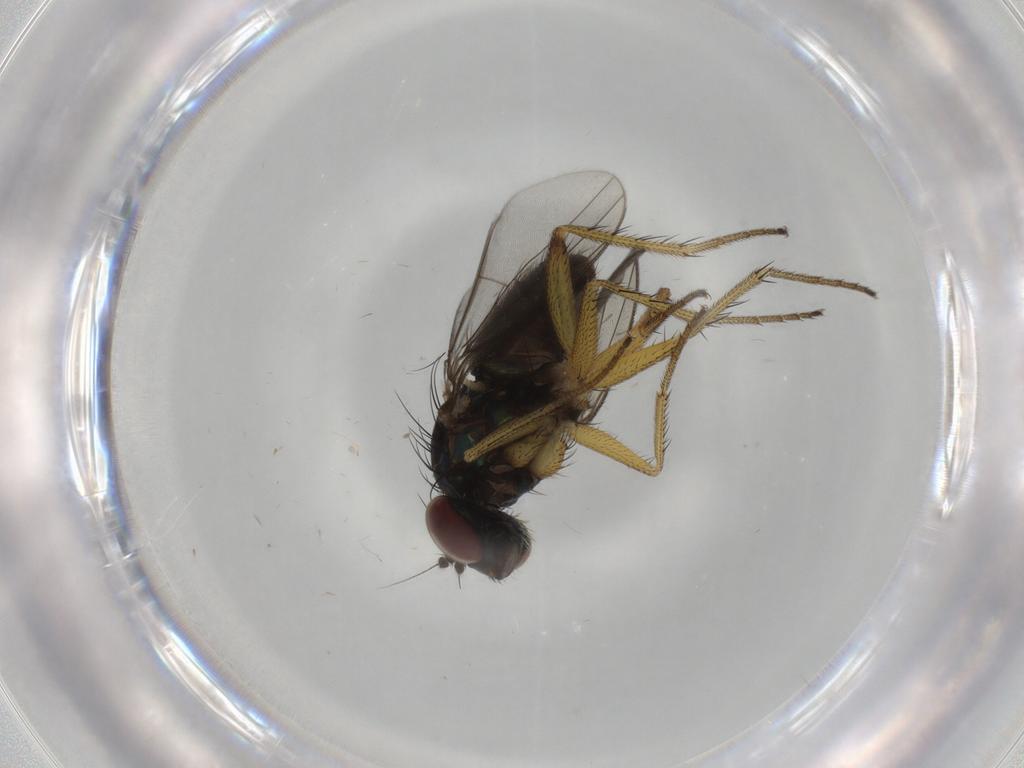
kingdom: Animalia
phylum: Arthropoda
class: Insecta
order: Diptera
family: Dolichopodidae
